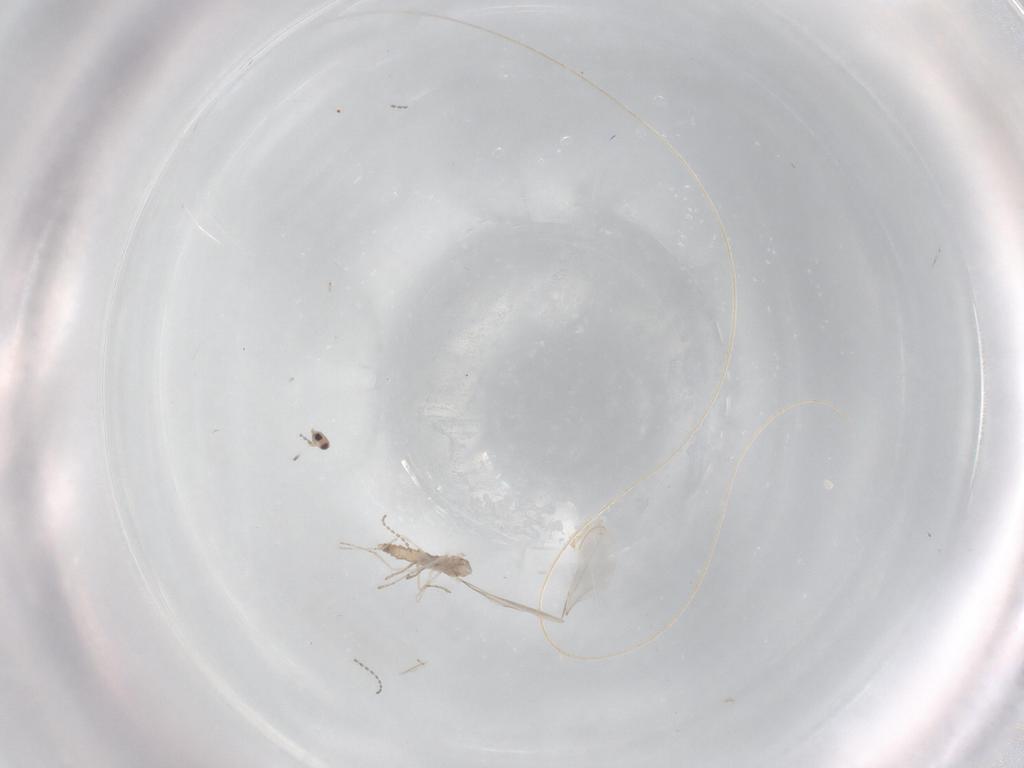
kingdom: Animalia
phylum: Arthropoda
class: Insecta
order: Diptera
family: Cecidomyiidae
